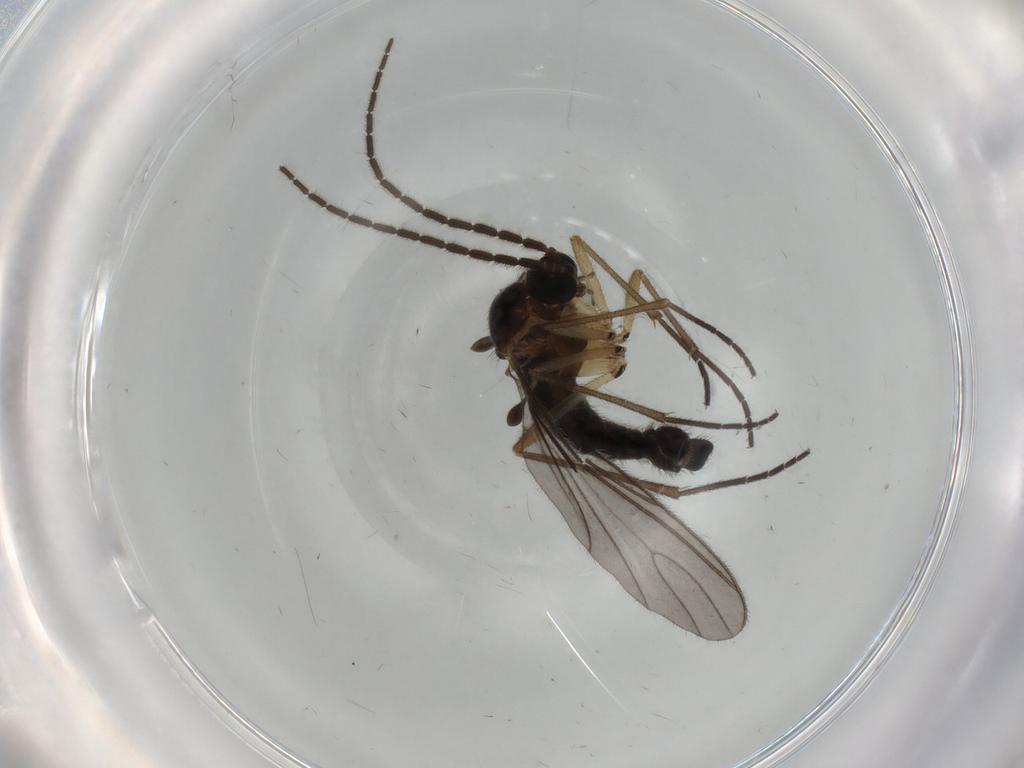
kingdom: Animalia
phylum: Arthropoda
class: Insecta
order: Diptera
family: Sciaridae
